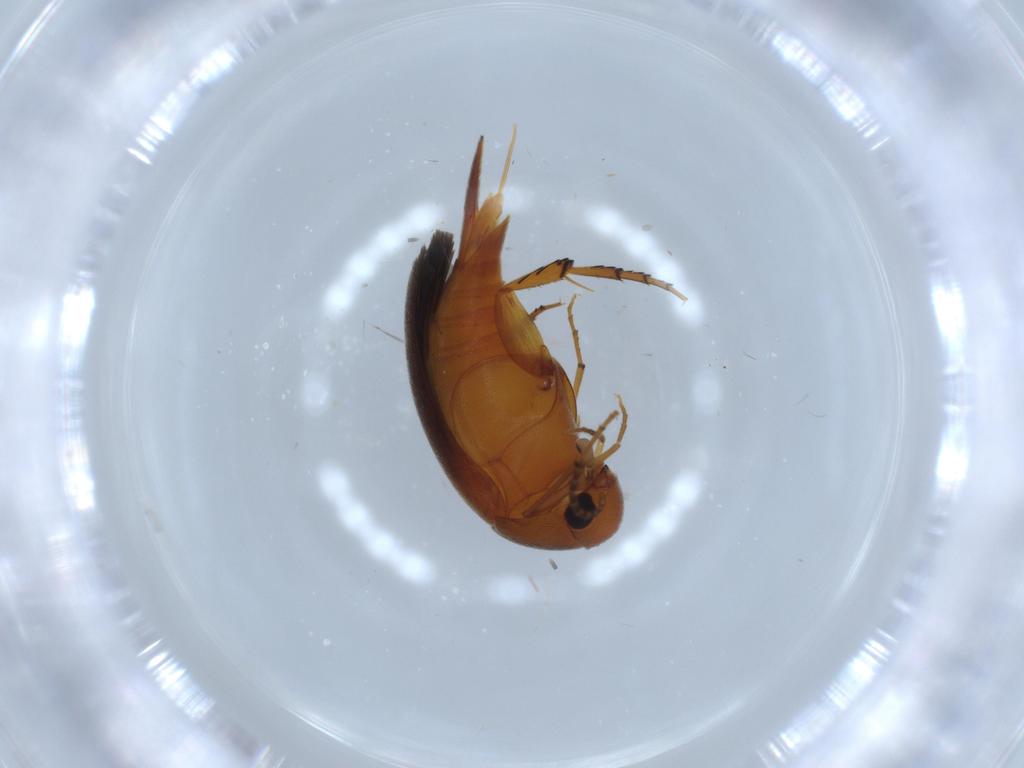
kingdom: Animalia
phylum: Arthropoda
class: Insecta
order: Coleoptera
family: Mordellidae
